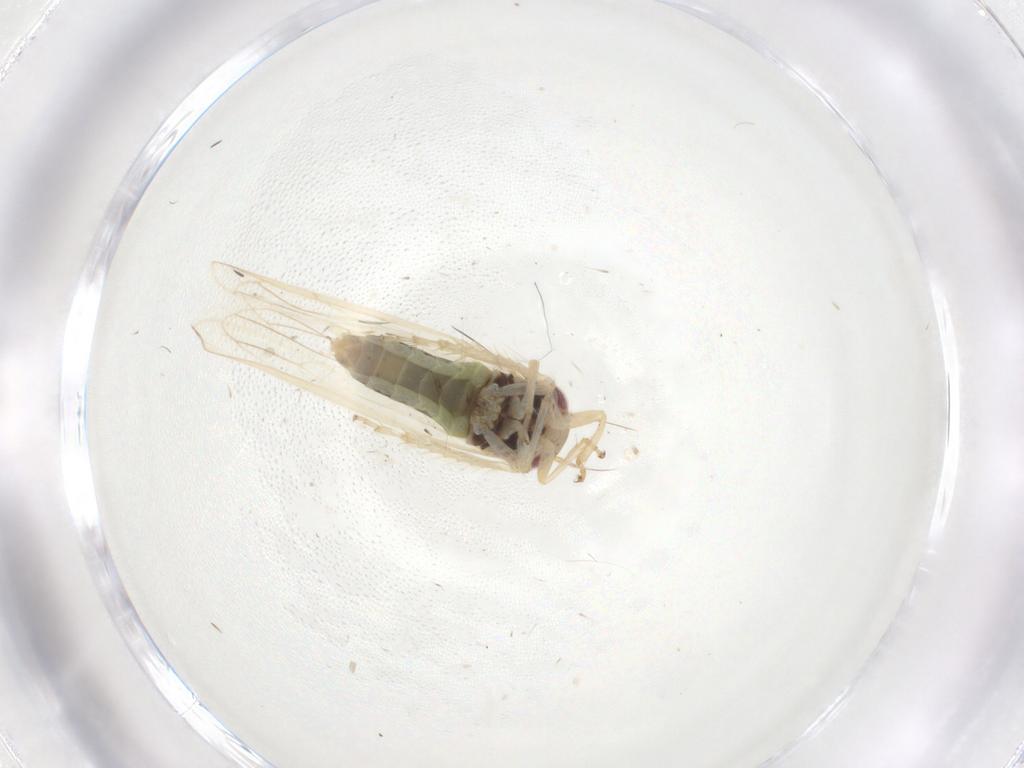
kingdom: Animalia
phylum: Arthropoda
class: Insecta
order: Hemiptera
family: Cicadellidae
